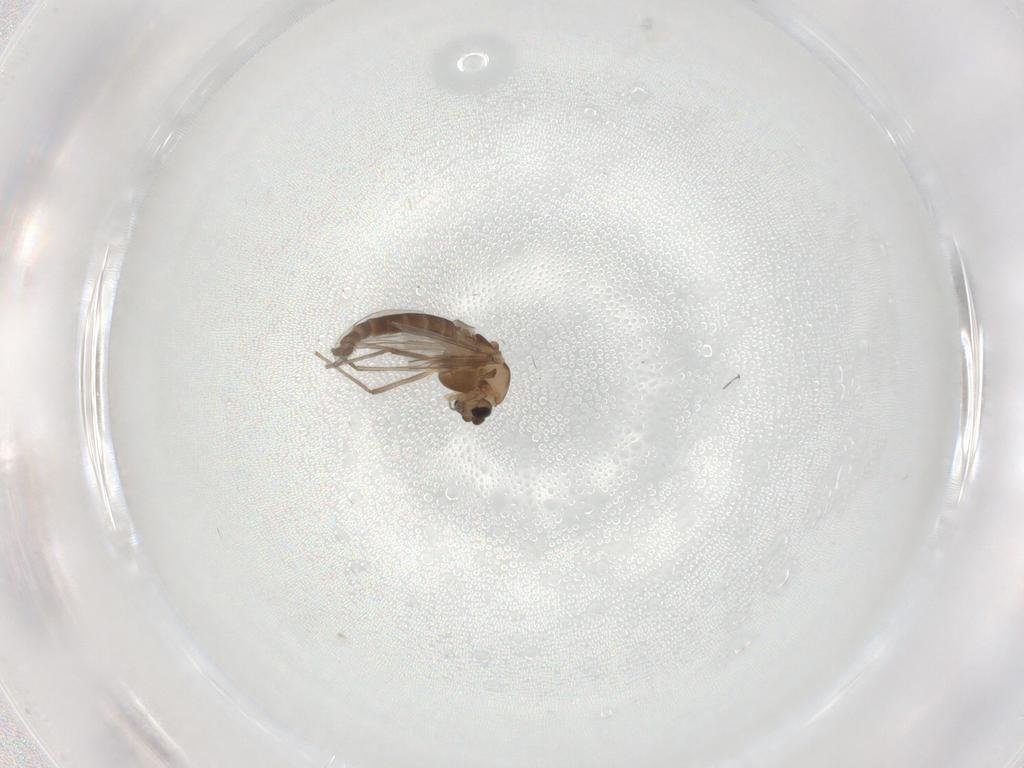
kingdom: Animalia
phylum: Arthropoda
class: Insecta
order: Diptera
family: Chironomidae
